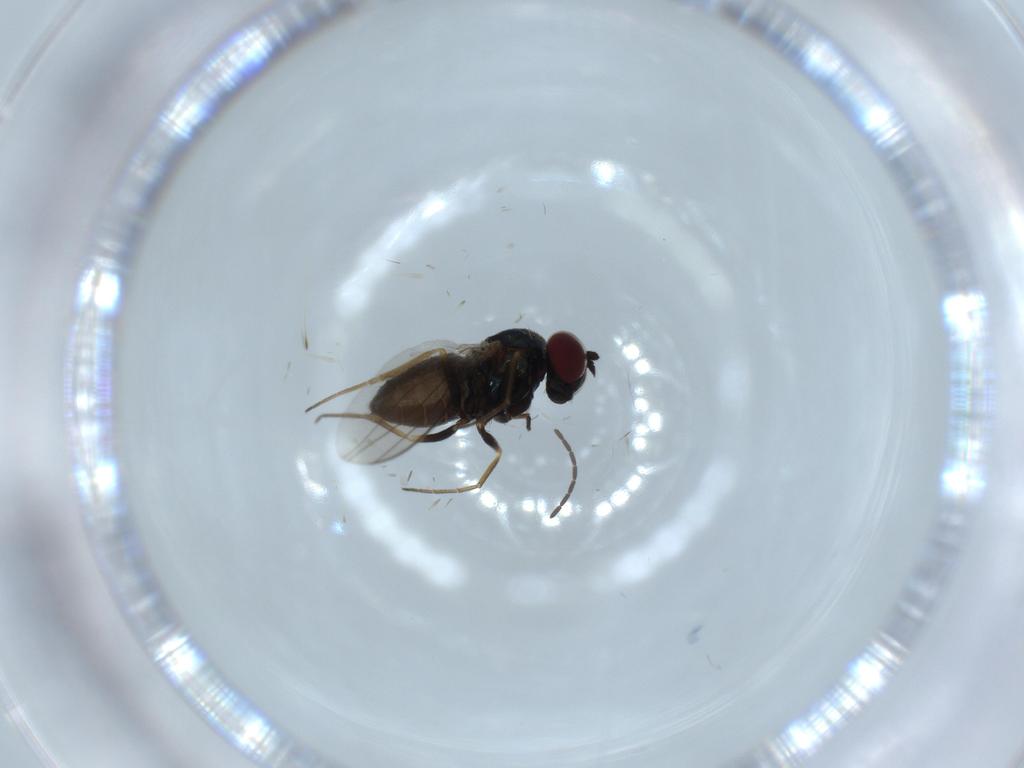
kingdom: Animalia
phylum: Arthropoda
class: Insecta
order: Diptera
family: Dolichopodidae
